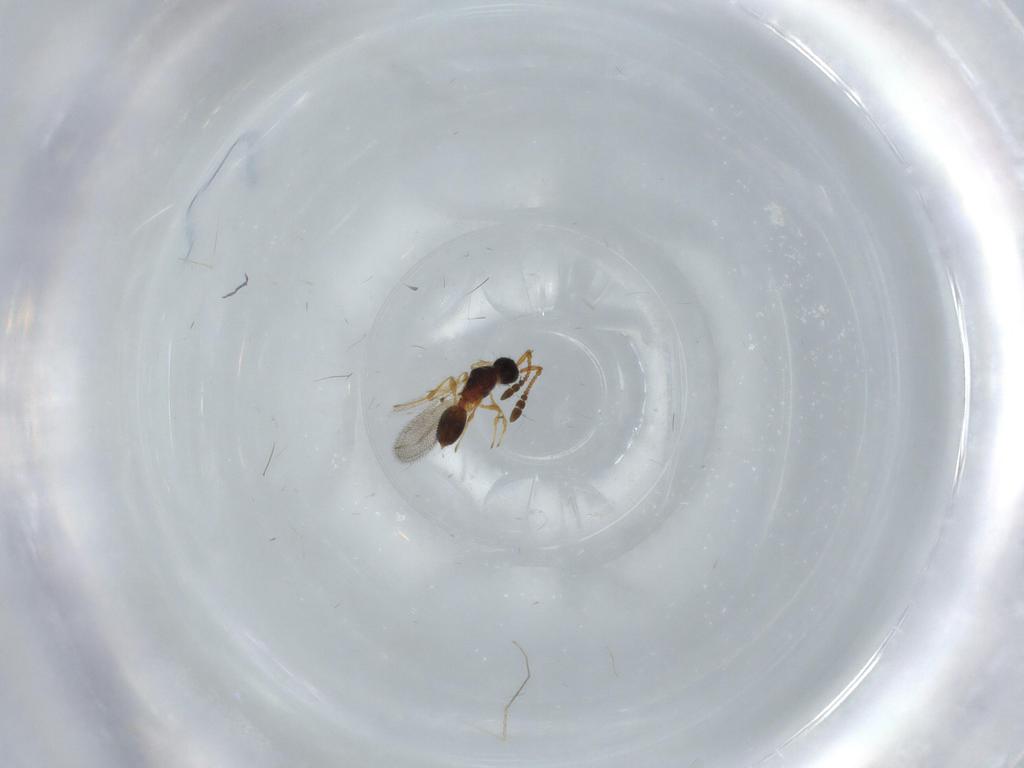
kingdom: Animalia
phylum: Arthropoda
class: Insecta
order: Hymenoptera
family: Diapriidae
